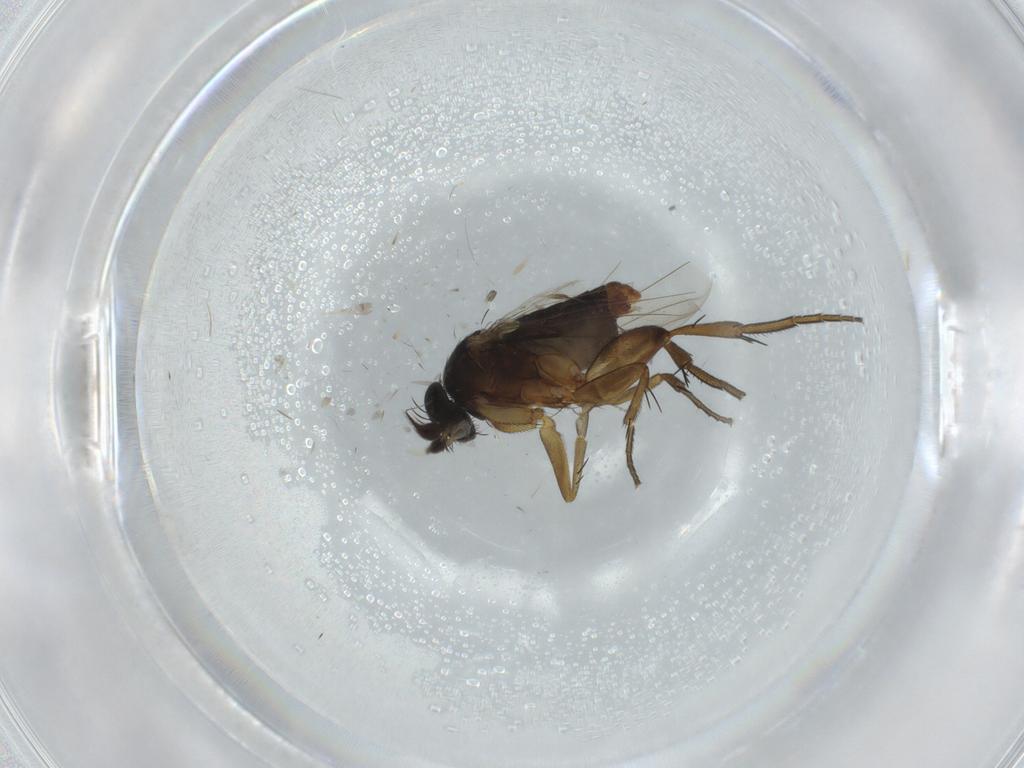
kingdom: Animalia
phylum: Arthropoda
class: Insecta
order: Diptera
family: Phoridae
